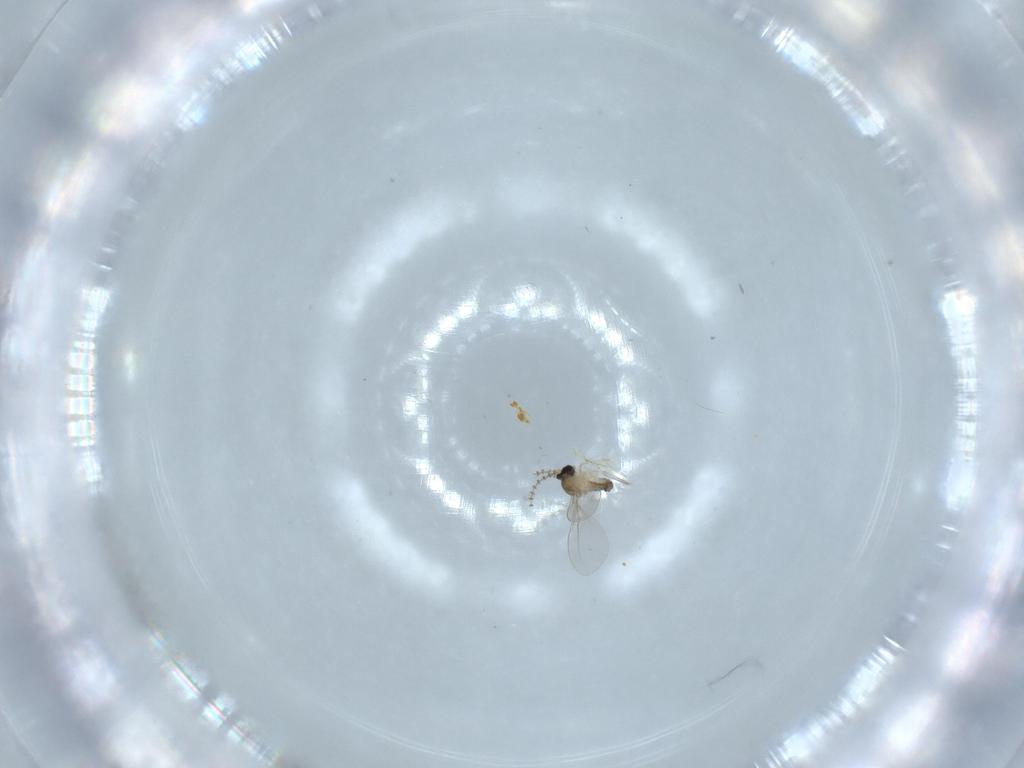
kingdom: Animalia
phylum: Arthropoda
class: Insecta
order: Diptera
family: Cecidomyiidae
